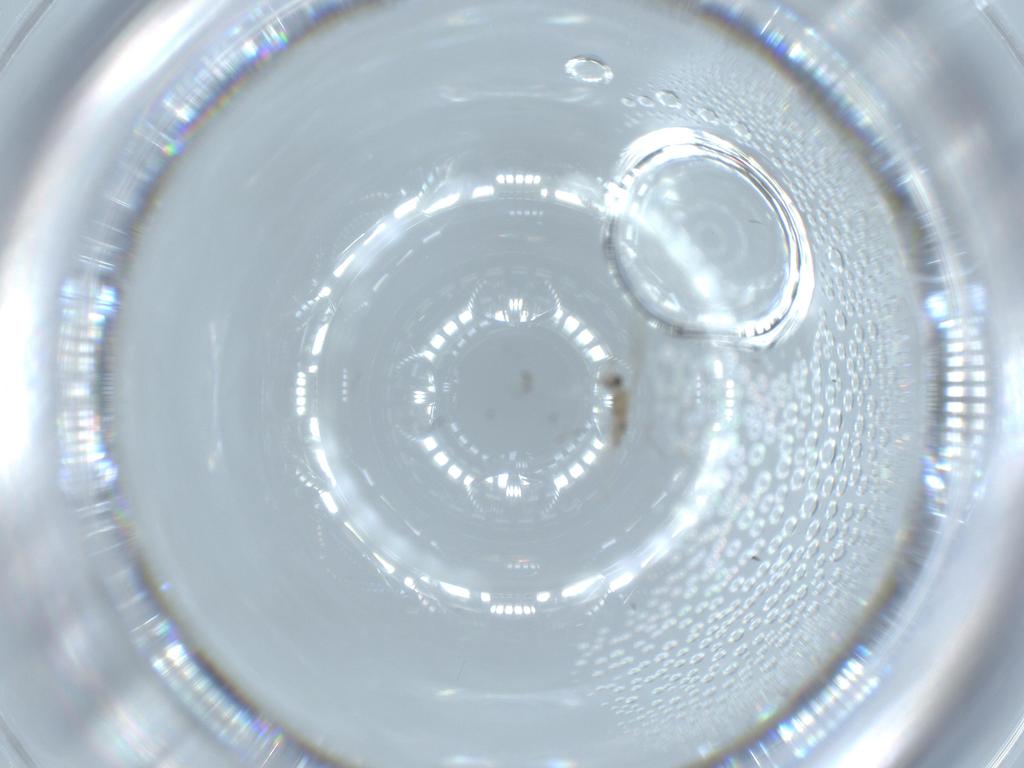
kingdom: Animalia
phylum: Arthropoda
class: Insecta
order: Diptera
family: Cecidomyiidae
